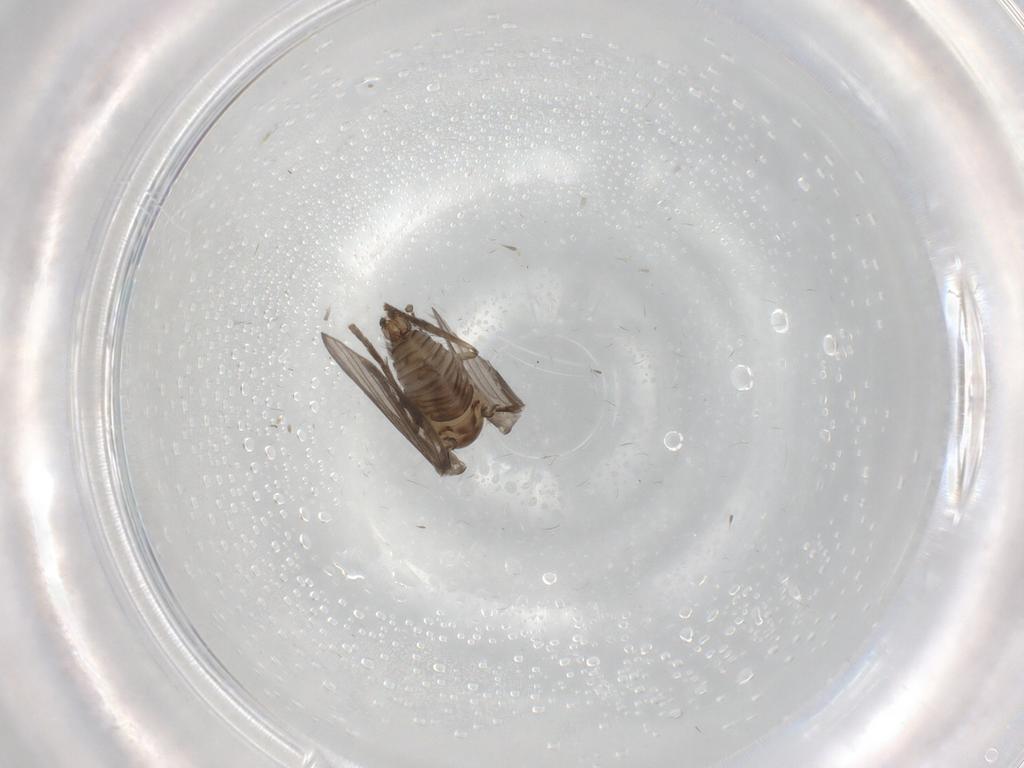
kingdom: Animalia
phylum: Arthropoda
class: Insecta
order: Diptera
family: Psychodidae
